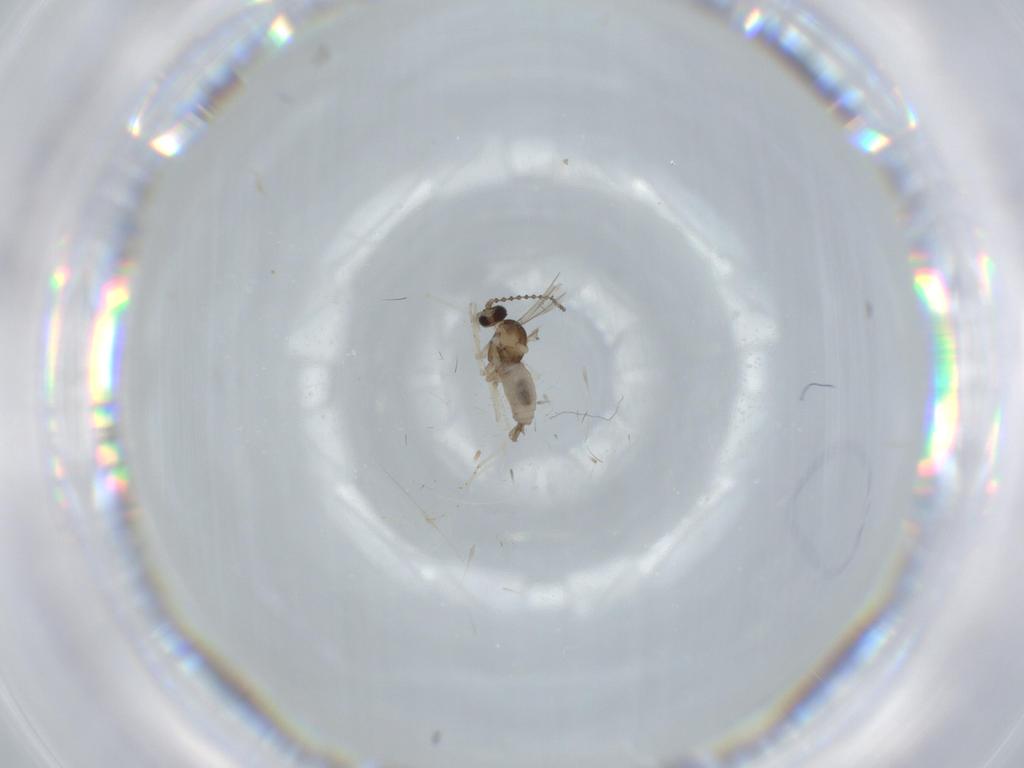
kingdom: Animalia
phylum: Arthropoda
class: Insecta
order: Diptera
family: Cecidomyiidae
